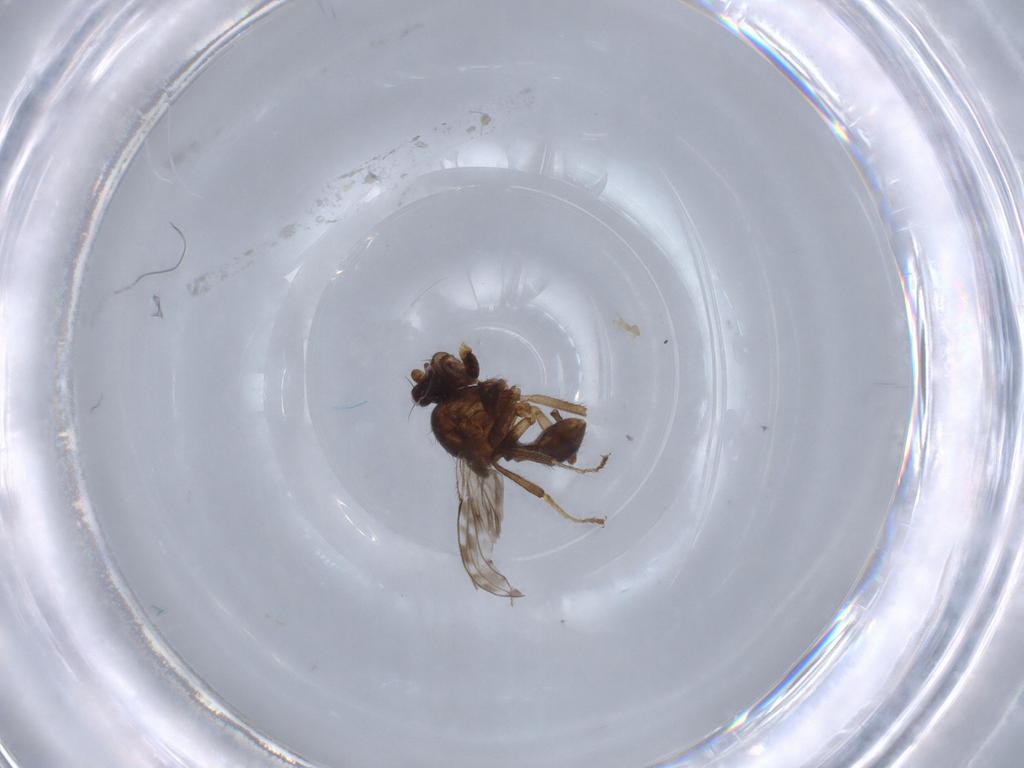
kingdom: Animalia
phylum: Arthropoda
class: Insecta
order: Diptera
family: Ephydridae
